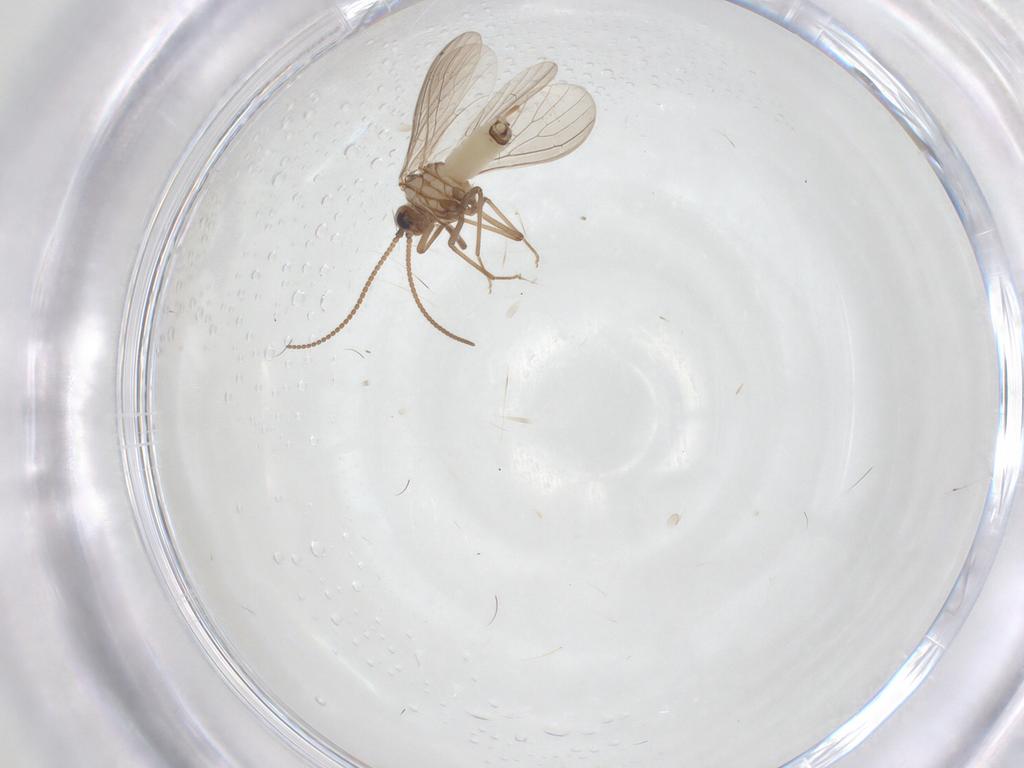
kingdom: Animalia
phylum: Arthropoda
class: Insecta
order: Neuroptera
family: Coniopterygidae
